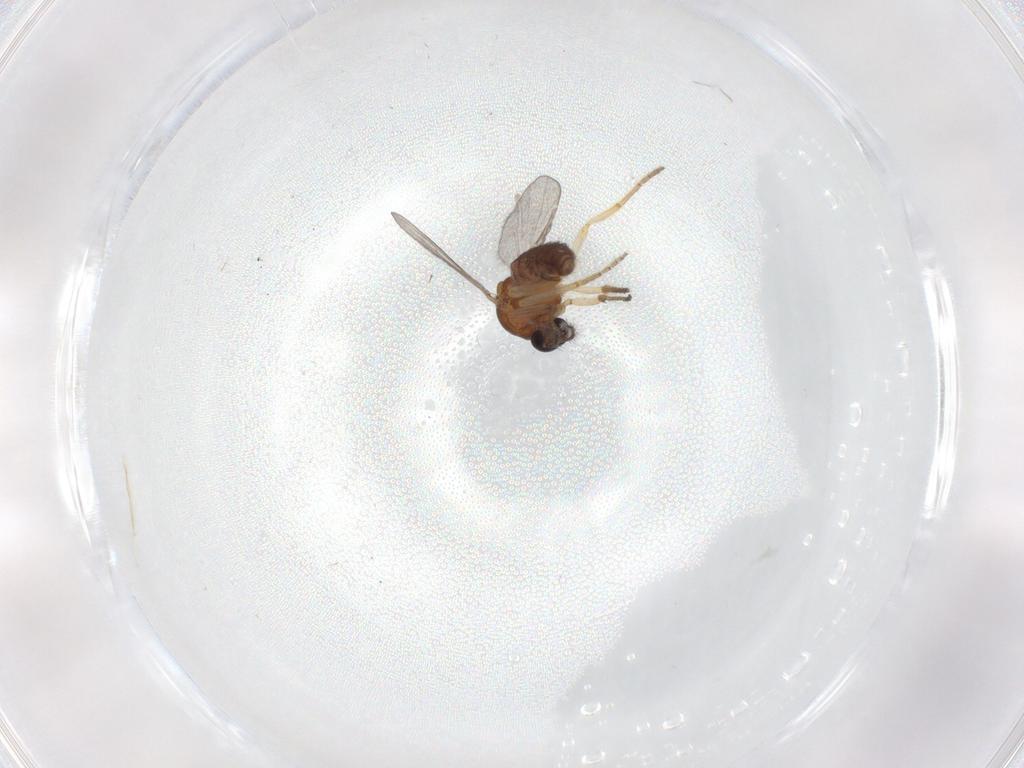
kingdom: Animalia
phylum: Arthropoda
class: Insecta
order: Diptera
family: Ceratopogonidae
